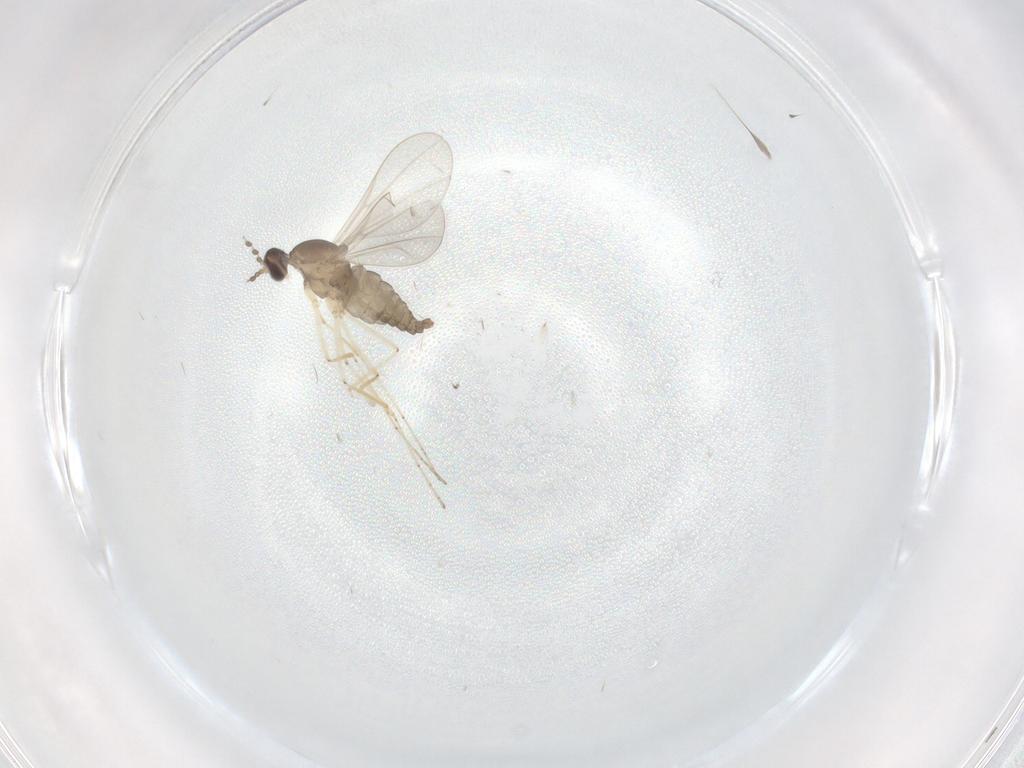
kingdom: Animalia
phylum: Arthropoda
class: Insecta
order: Diptera
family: Cecidomyiidae
